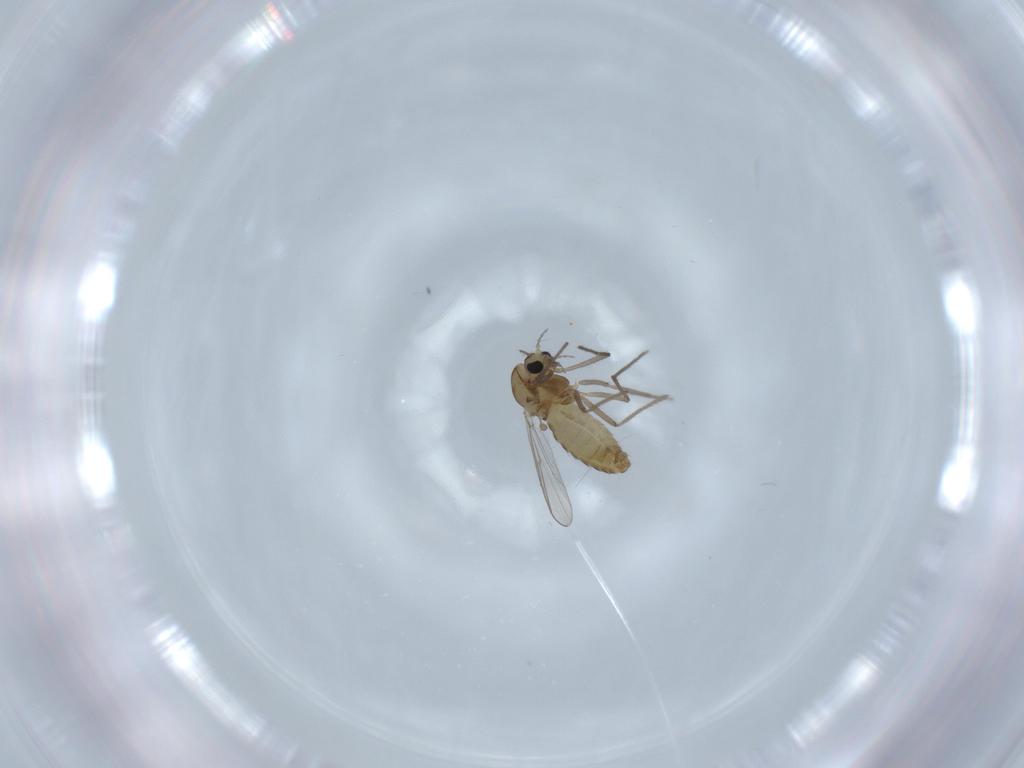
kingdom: Animalia
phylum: Arthropoda
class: Insecta
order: Diptera
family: Chironomidae
